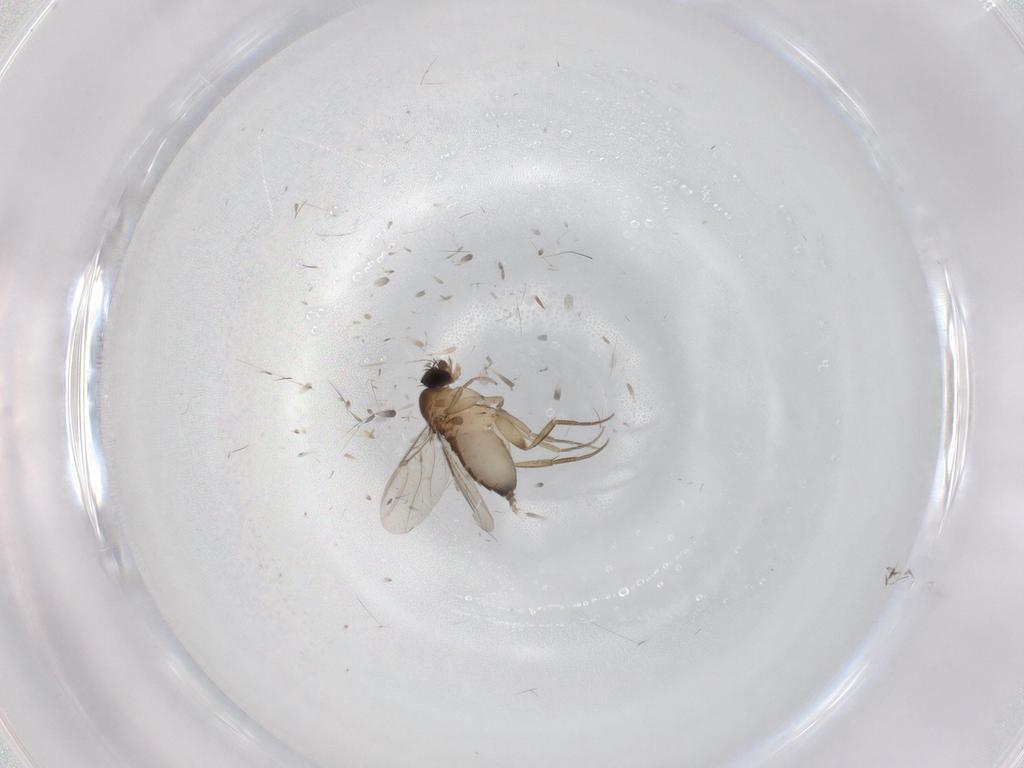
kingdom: Animalia
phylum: Arthropoda
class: Insecta
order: Diptera
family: Phoridae
